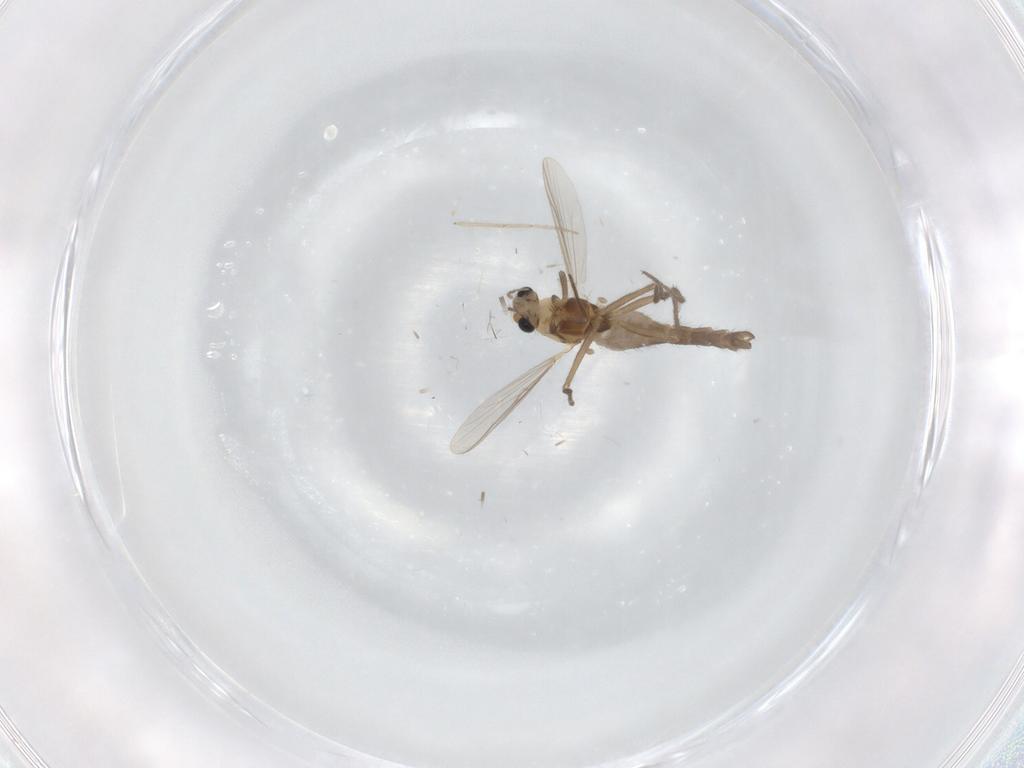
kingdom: Animalia
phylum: Arthropoda
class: Insecta
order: Diptera
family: Chironomidae
